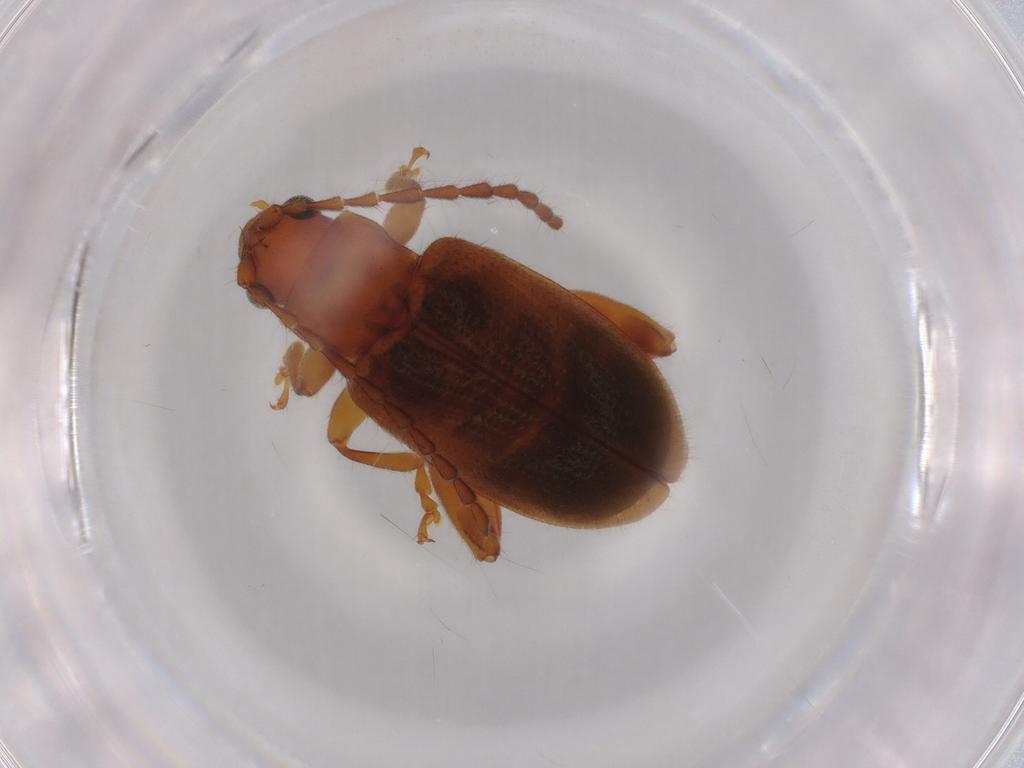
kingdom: Animalia
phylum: Arthropoda
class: Insecta
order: Coleoptera
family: Chrysomelidae
